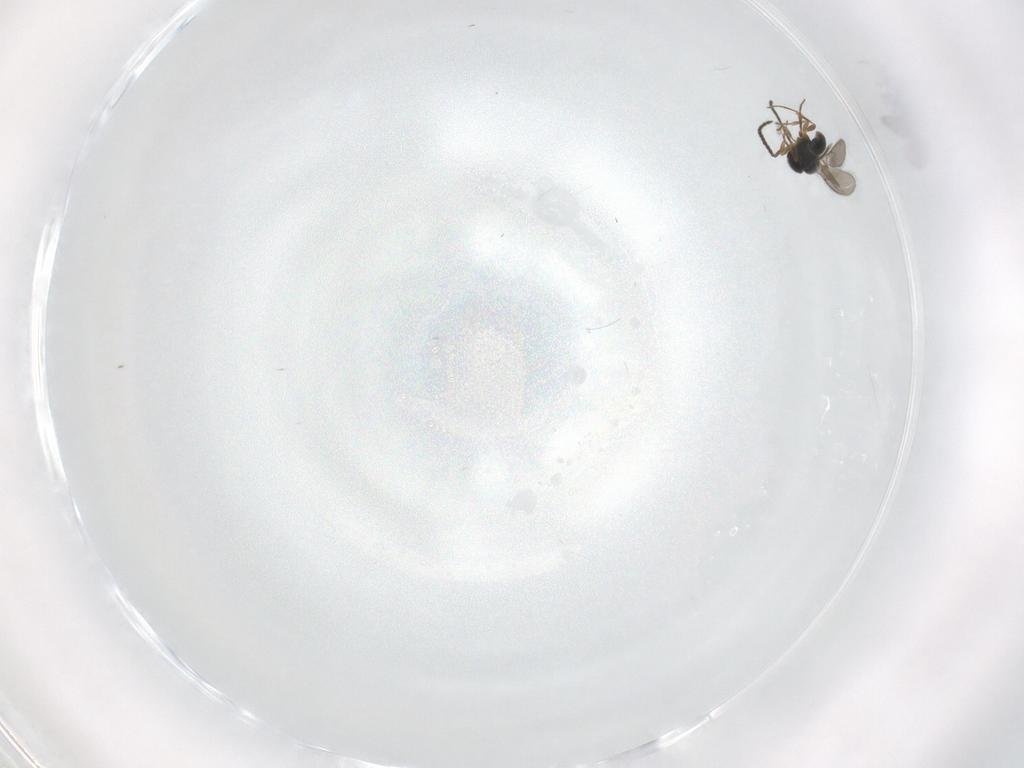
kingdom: Animalia
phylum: Arthropoda
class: Insecta
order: Hymenoptera
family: Scelionidae
